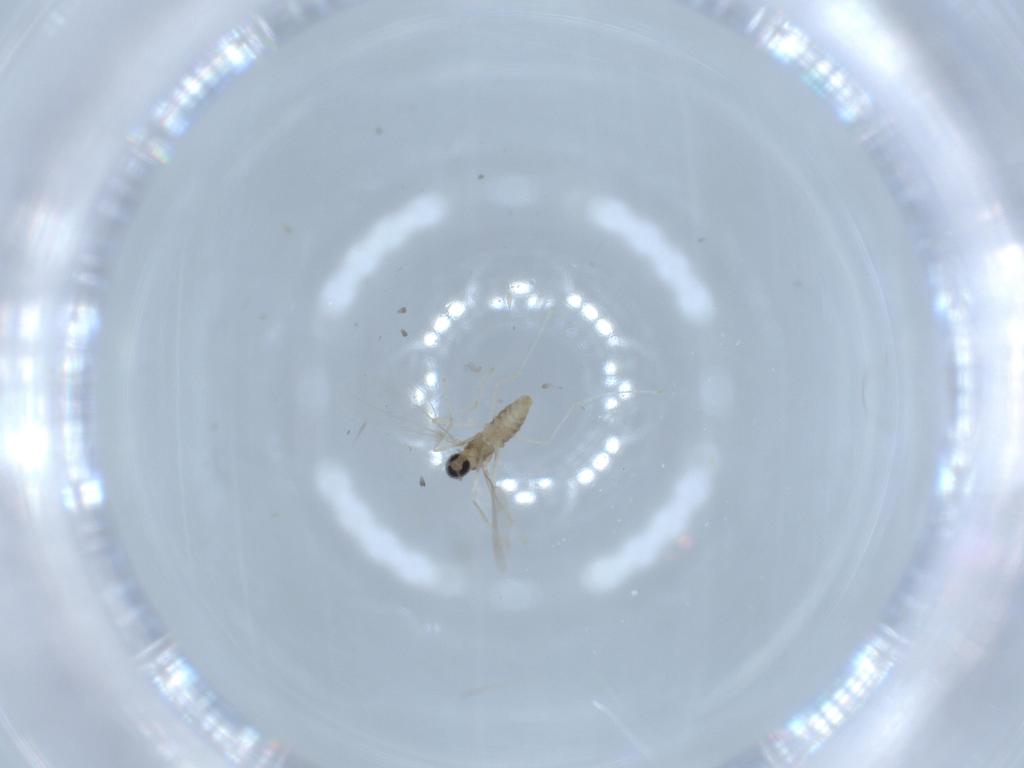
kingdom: Animalia
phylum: Arthropoda
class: Insecta
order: Diptera
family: Cecidomyiidae
